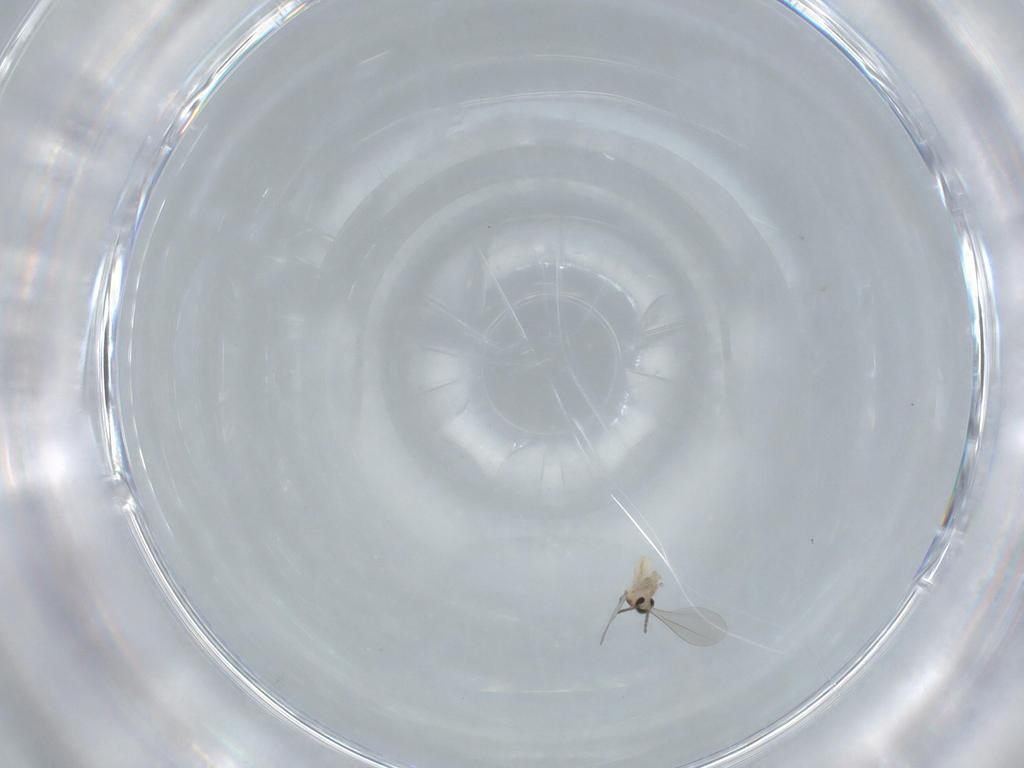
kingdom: Animalia
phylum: Arthropoda
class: Insecta
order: Diptera
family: Cecidomyiidae
